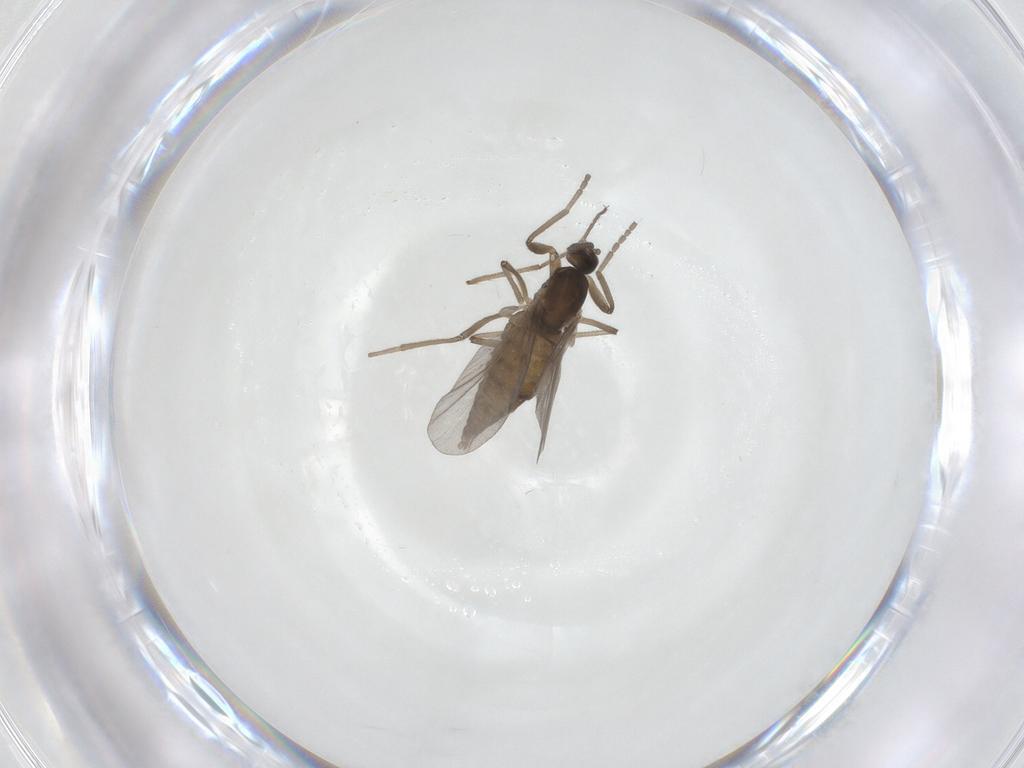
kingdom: Animalia
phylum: Arthropoda
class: Insecta
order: Diptera
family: Cecidomyiidae
